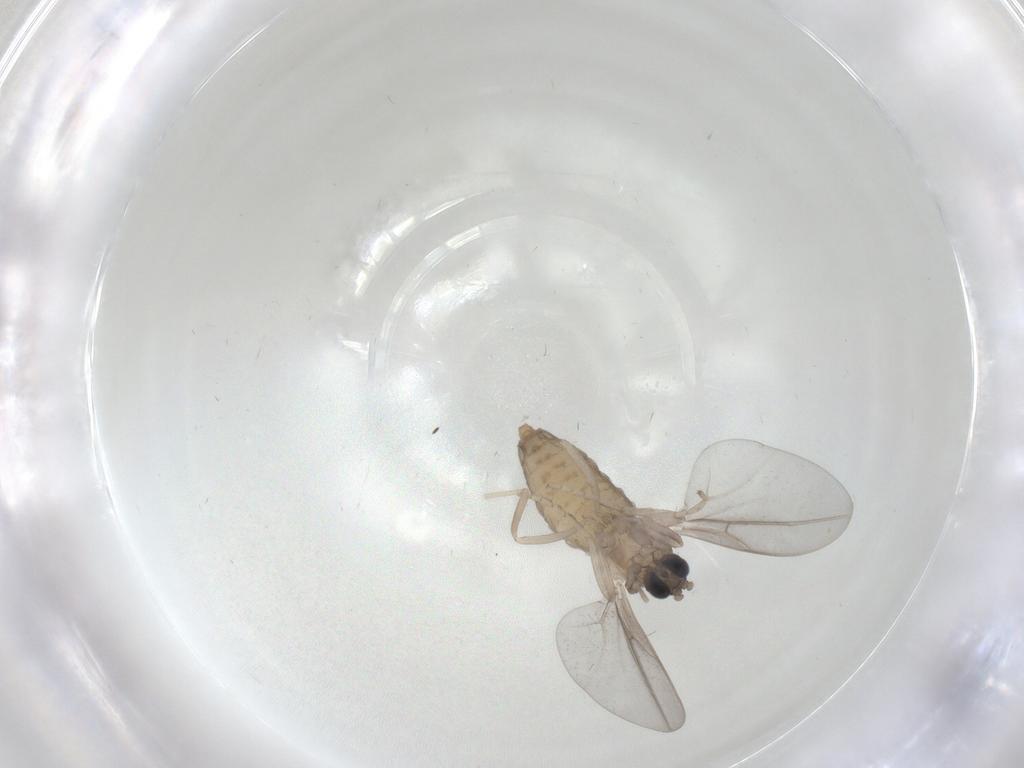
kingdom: Animalia
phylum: Arthropoda
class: Insecta
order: Diptera
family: Cecidomyiidae
